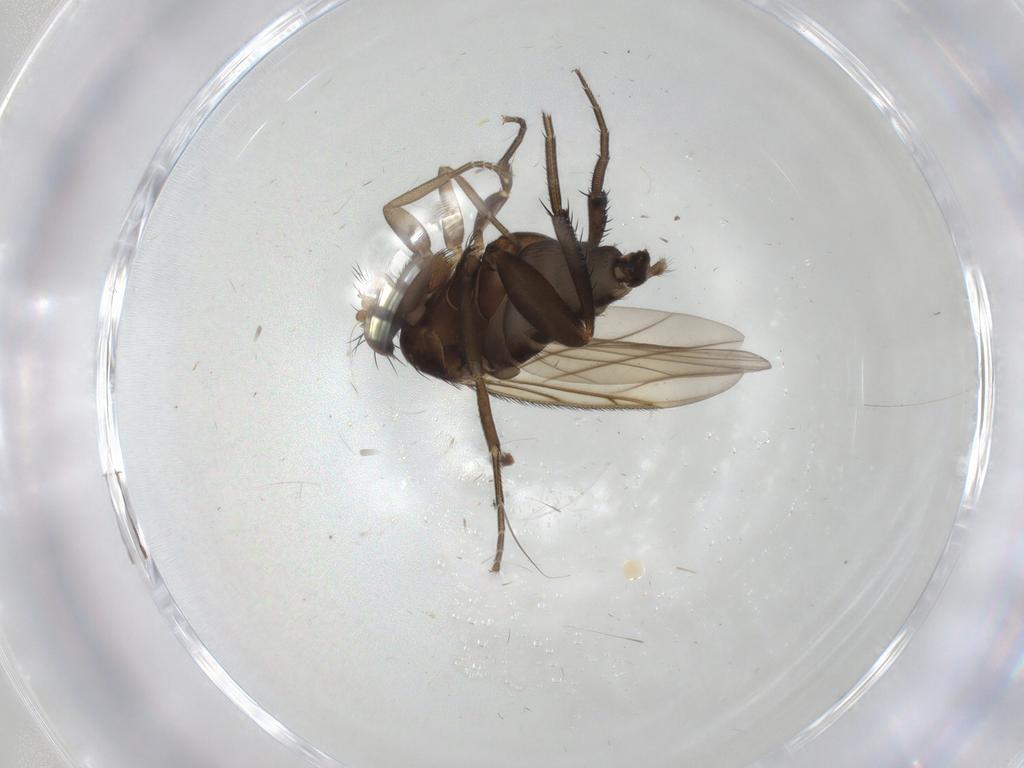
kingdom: Animalia
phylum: Arthropoda
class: Insecta
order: Diptera
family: Phoridae
